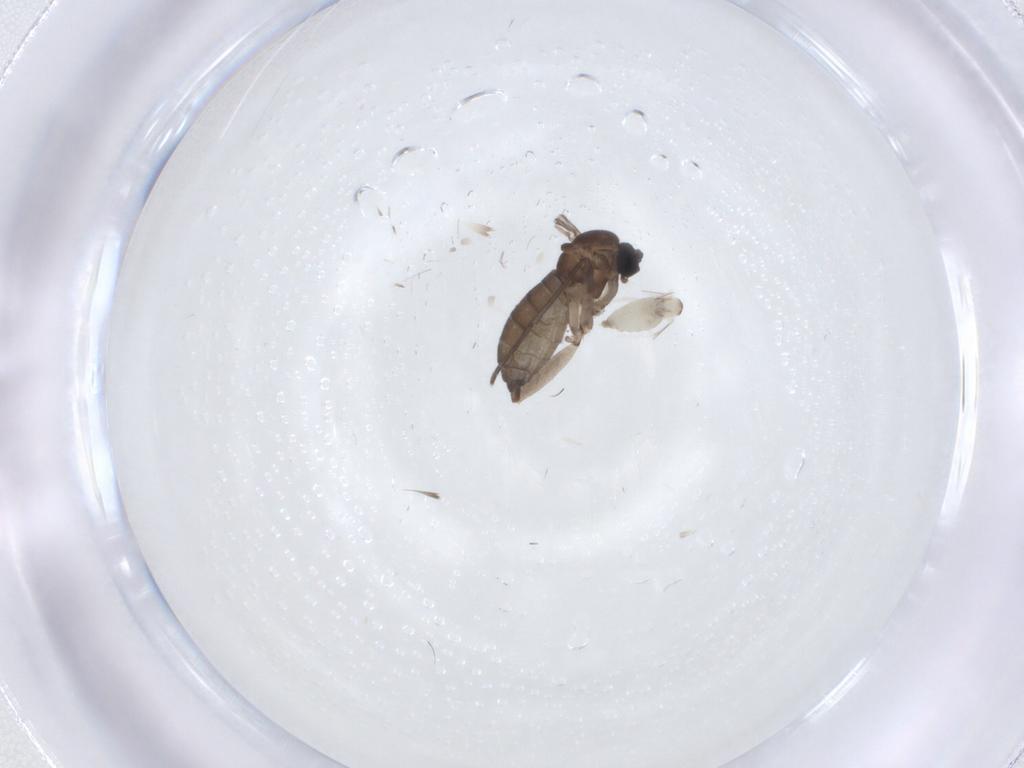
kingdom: Animalia
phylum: Arthropoda
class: Insecta
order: Diptera
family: Sciaridae
